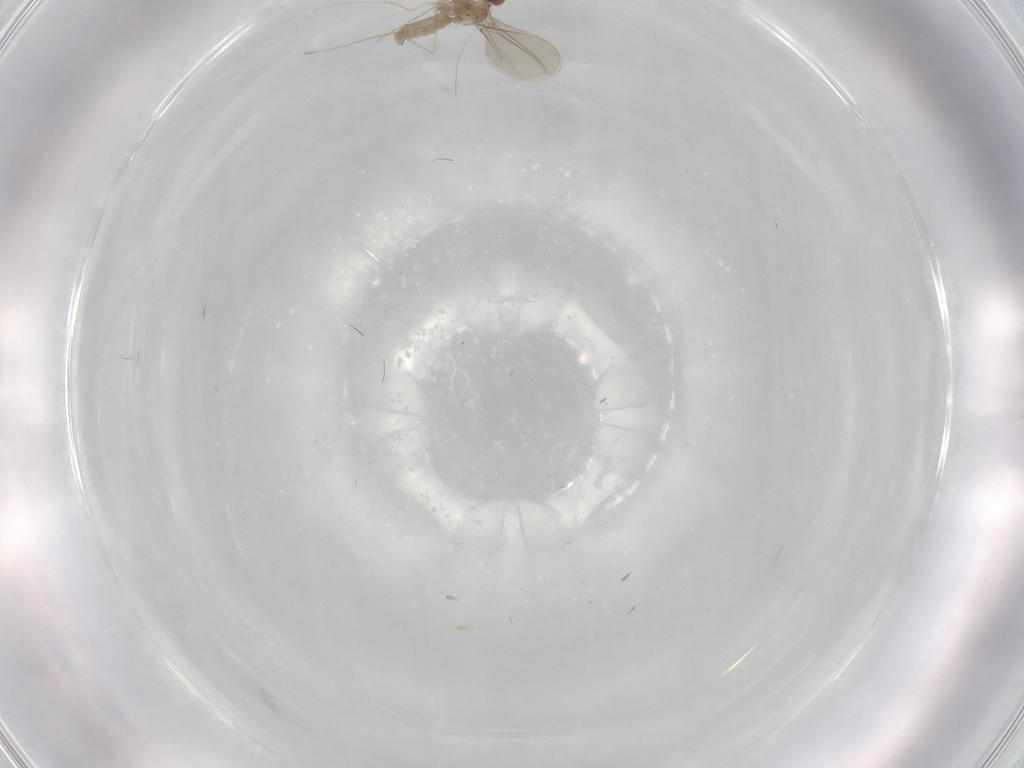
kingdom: Animalia
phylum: Arthropoda
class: Insecta
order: Diptera
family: Cecidomyiidae
